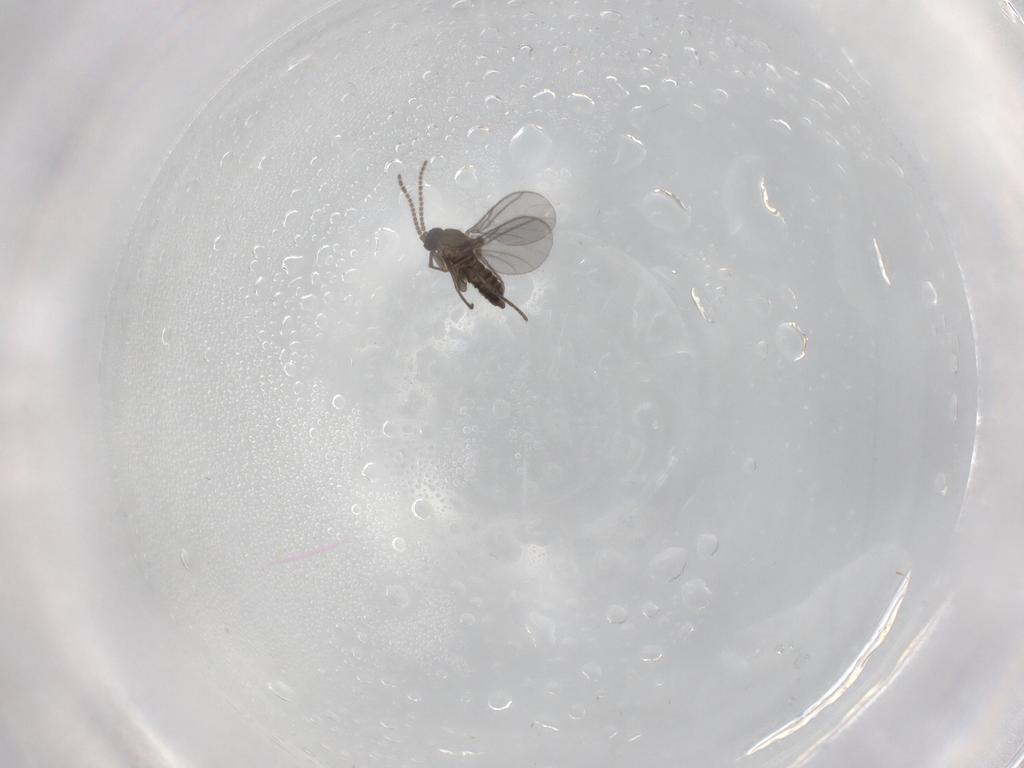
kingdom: Animalia
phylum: Arthropoda
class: Insecta
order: Diptera
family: Sciaridae
